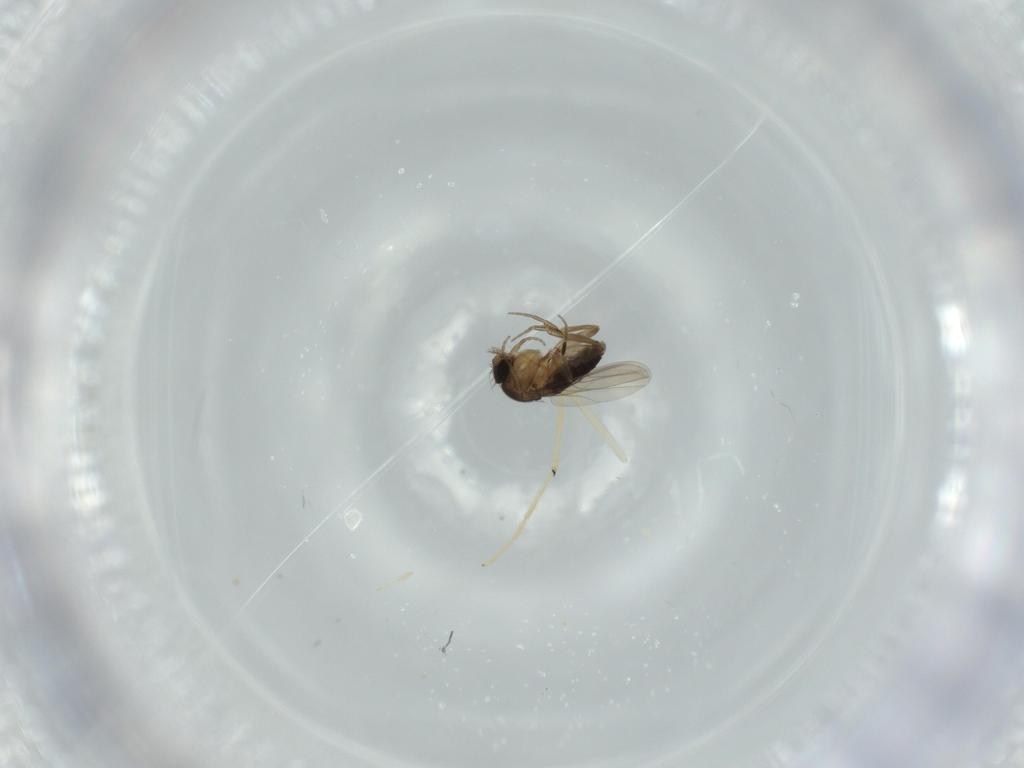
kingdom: Animalia
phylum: Arthropoda
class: Insecta
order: Diptera
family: Chironomidae
